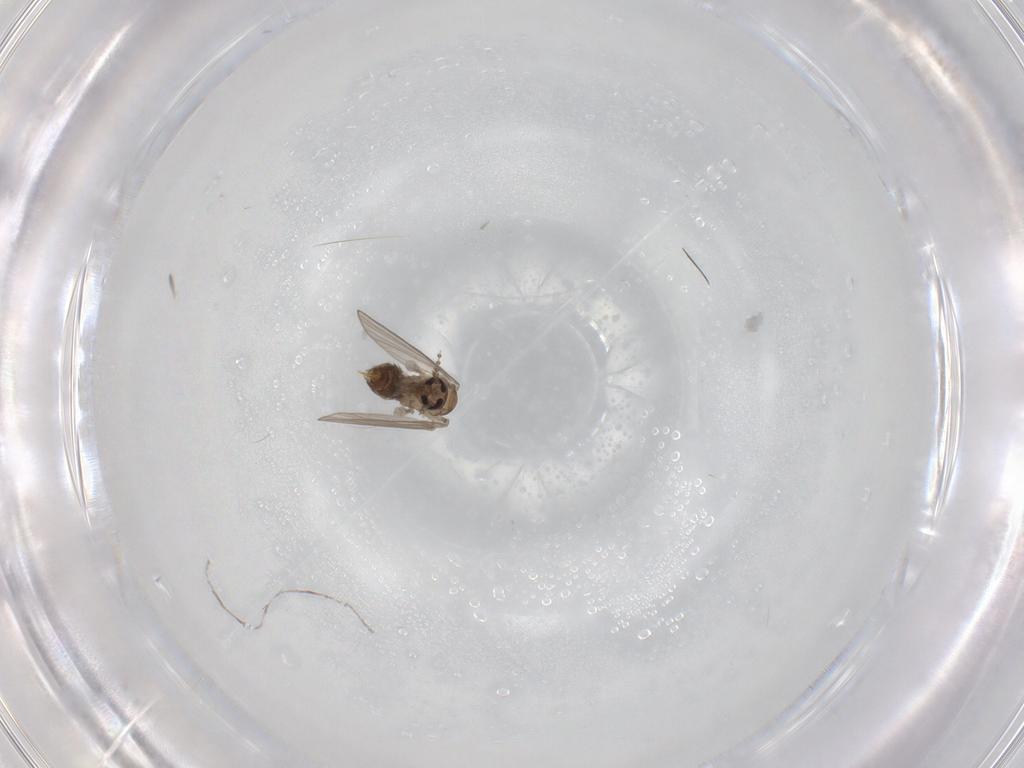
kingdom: Animalia
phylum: Arthropoda
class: Insecta
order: Diptera
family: Psychodidae
